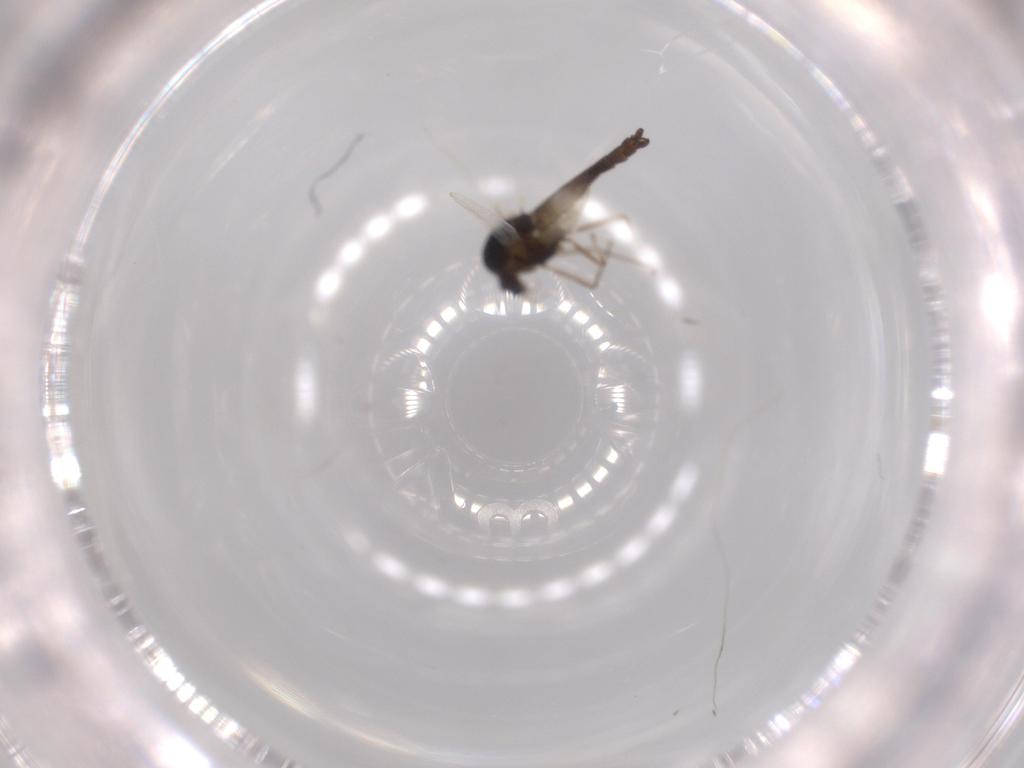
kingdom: Animalia
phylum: Arthropoda
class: Insecta
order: Diptera
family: Chironomidae
